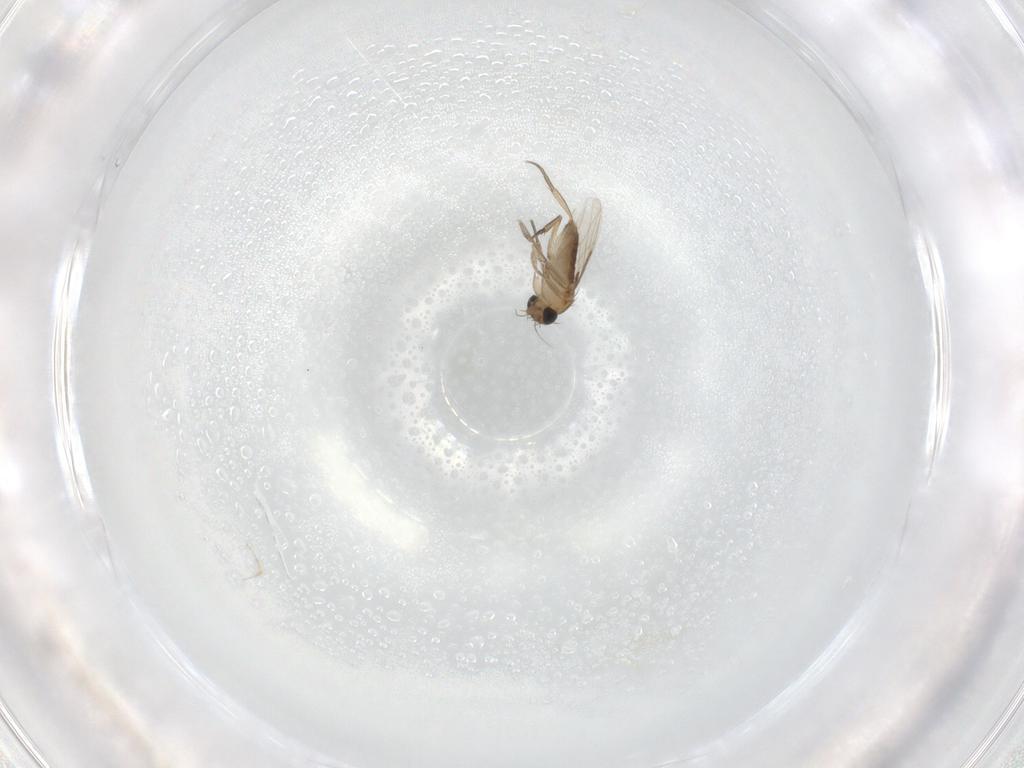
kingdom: Animalia
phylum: Arthropoda
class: Insecta
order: Diptera
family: Phoridae
